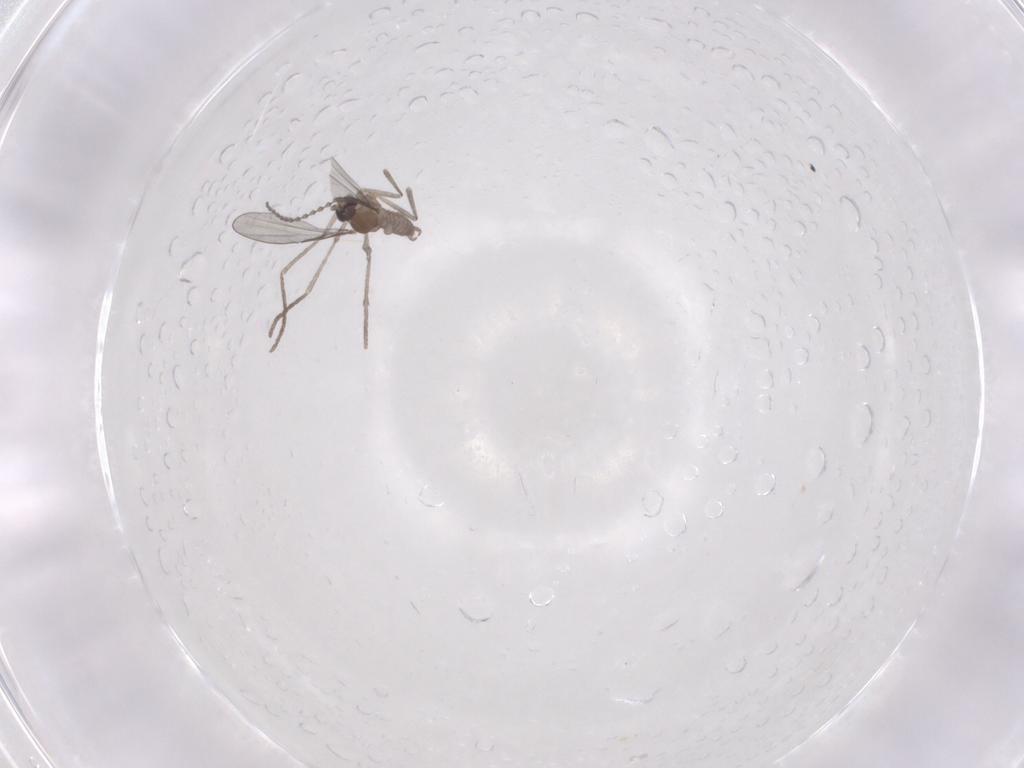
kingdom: Animalia
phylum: Arthropoda
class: Insecta
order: Diptera
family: Cecidomyiidae
